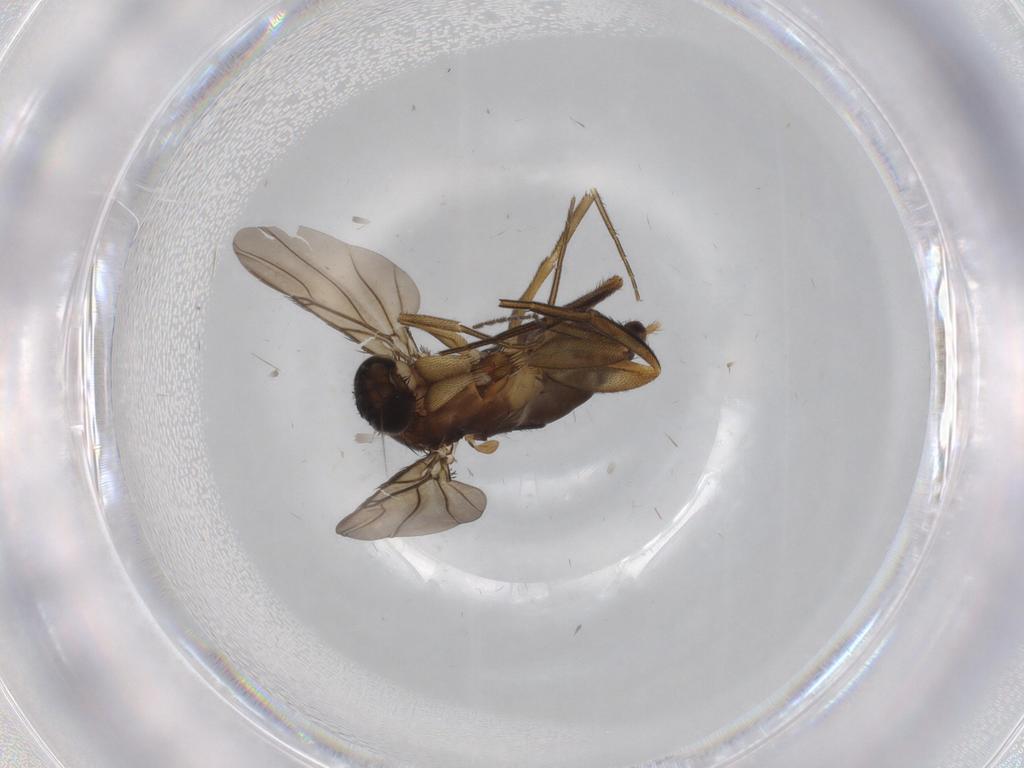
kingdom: Animalia
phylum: Arthropoda
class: Insecta
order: Diptera
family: Phoridae
